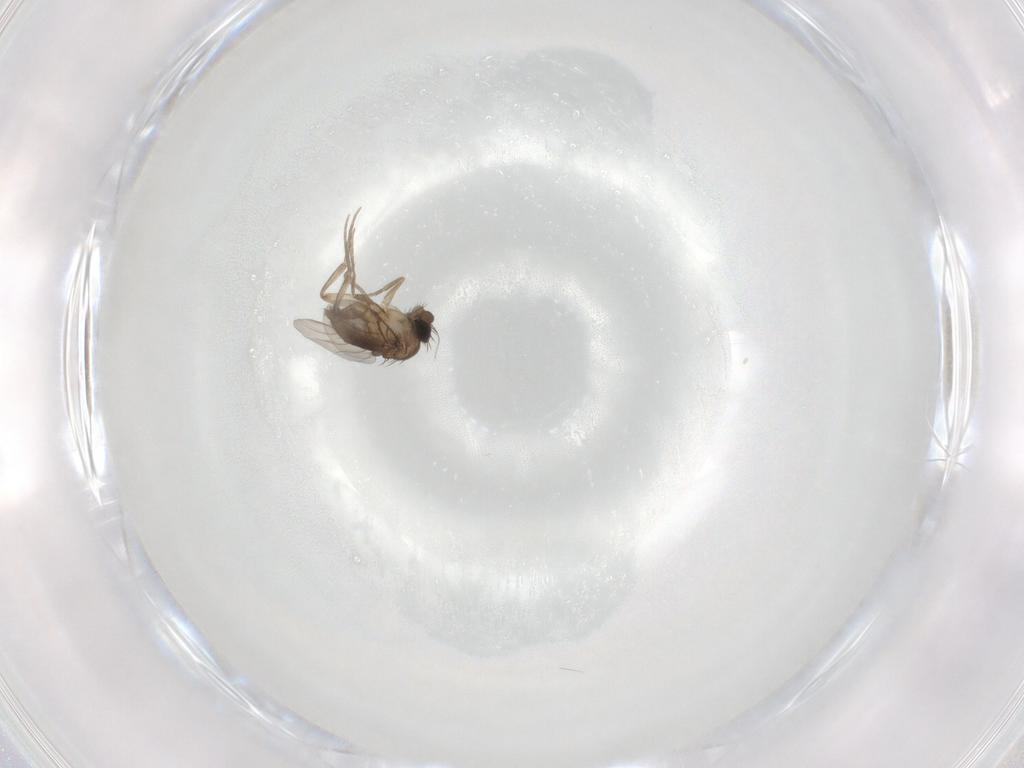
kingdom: Animalia
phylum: Arthropoda
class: Insecta
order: Diptera
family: Phoridae
